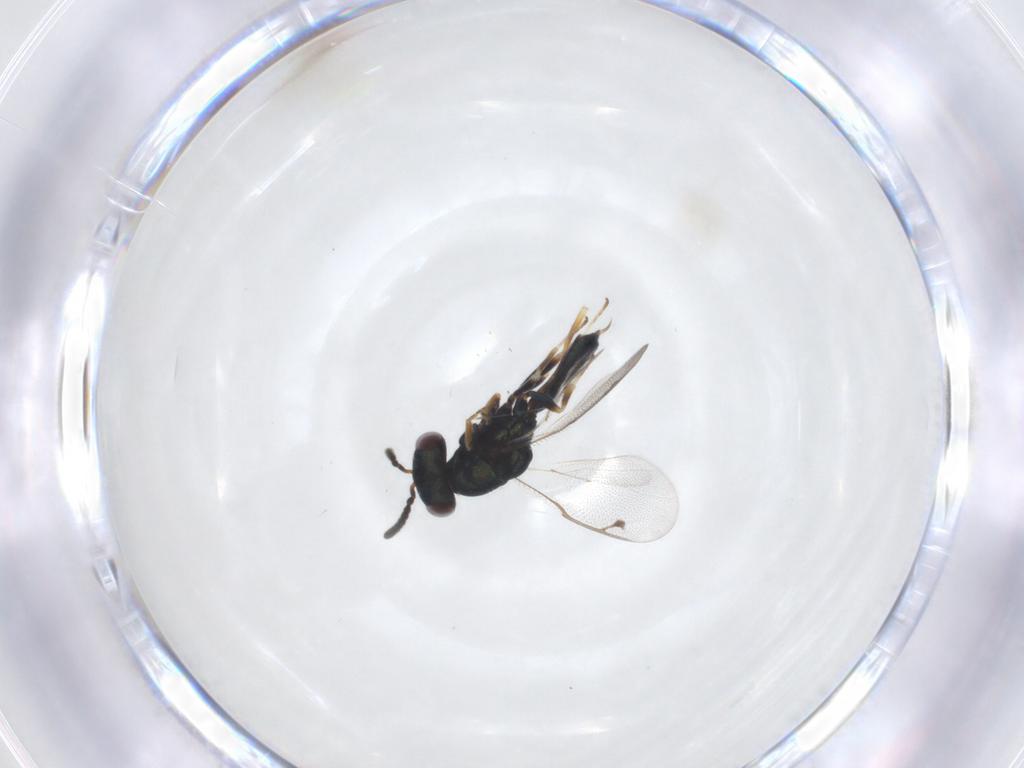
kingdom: Animalia
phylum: Arthropoda
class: Insecta
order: Hymenoptera
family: Pteromalidae
